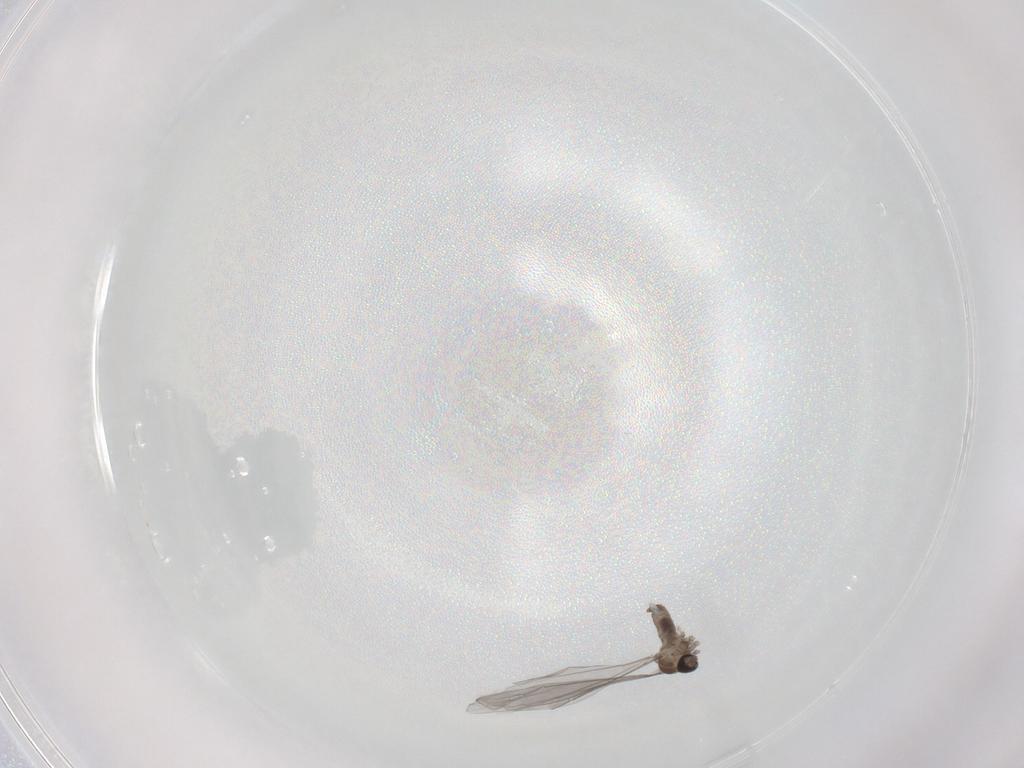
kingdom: Animalia
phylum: Arthropoda
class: Insecta
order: Diptera
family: Cecidomyiidae
